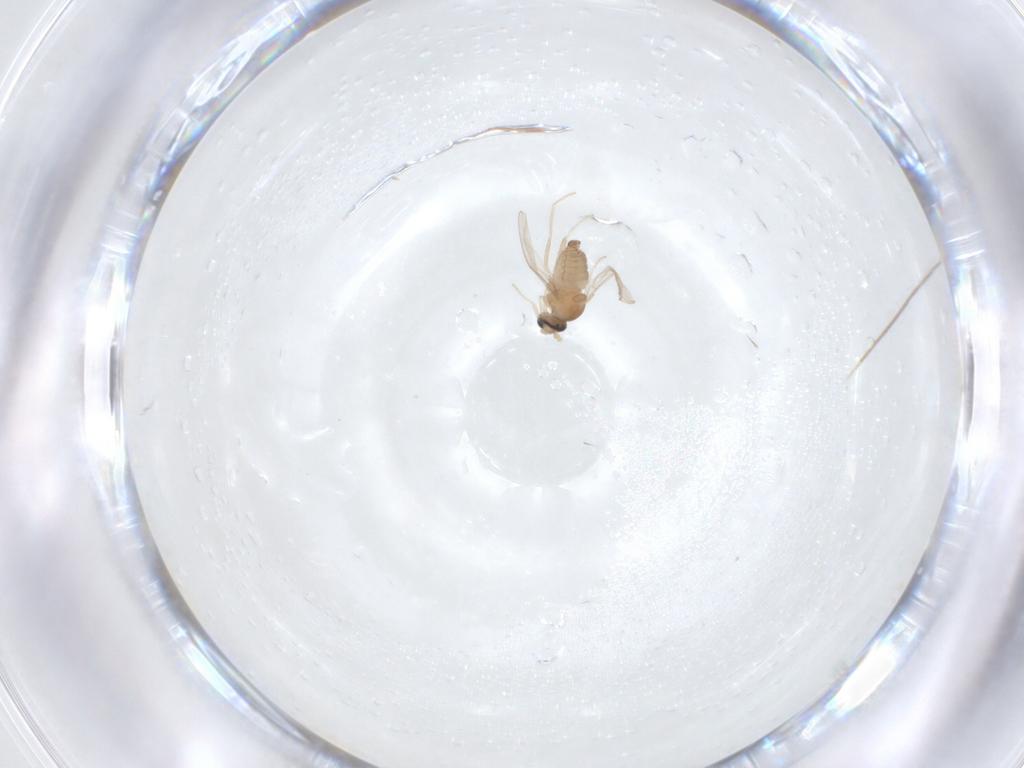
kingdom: Animalia
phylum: Arthropoda
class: Insecta
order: Diptera
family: Cecidomyiidae
